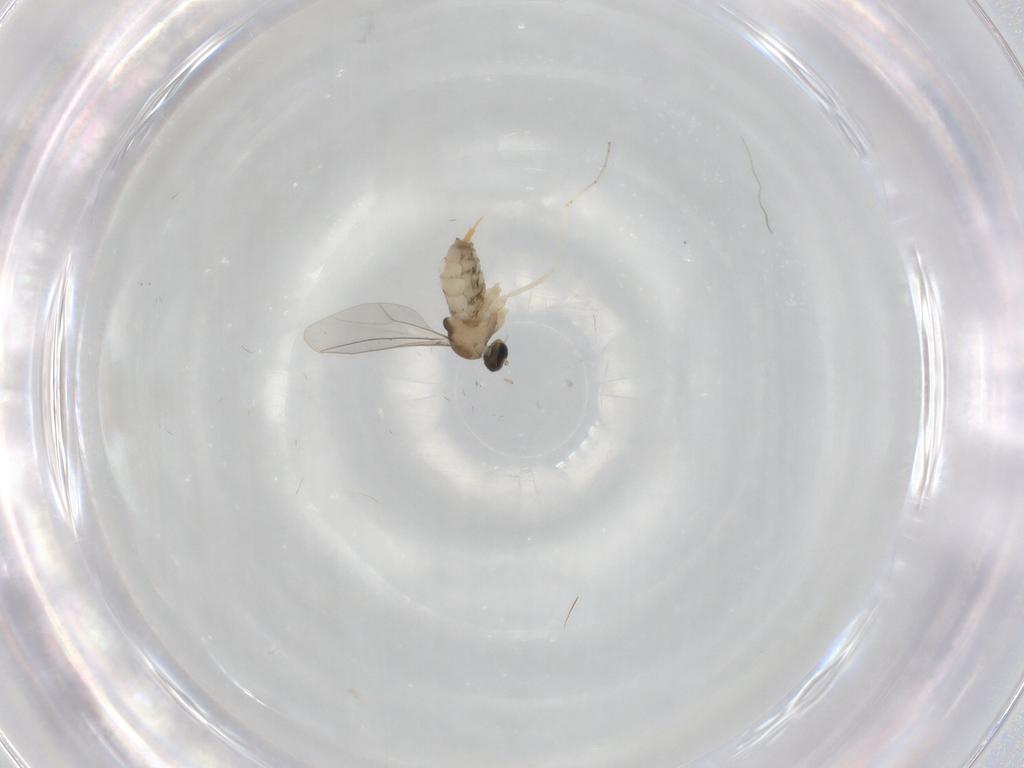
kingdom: Animalia
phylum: Arthropoda
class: Insecta
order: Diptera
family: Cecidomyiidae
